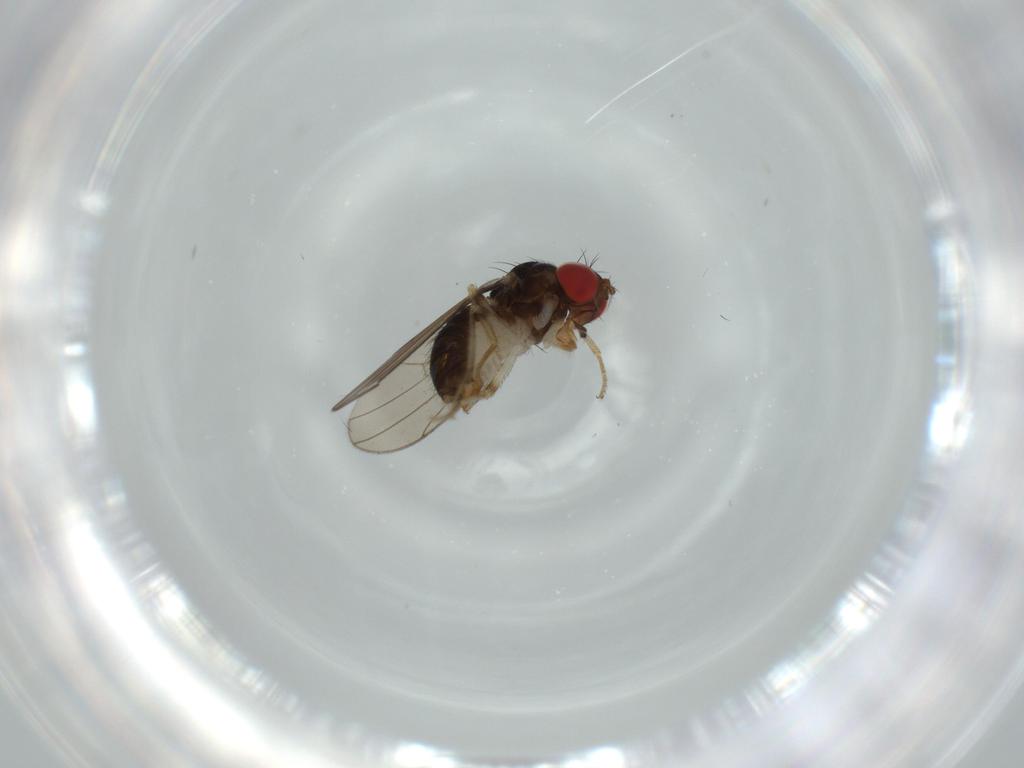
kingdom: Animalia
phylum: Arthropoda
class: Insecta
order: Diptera
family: Drosophilidae
